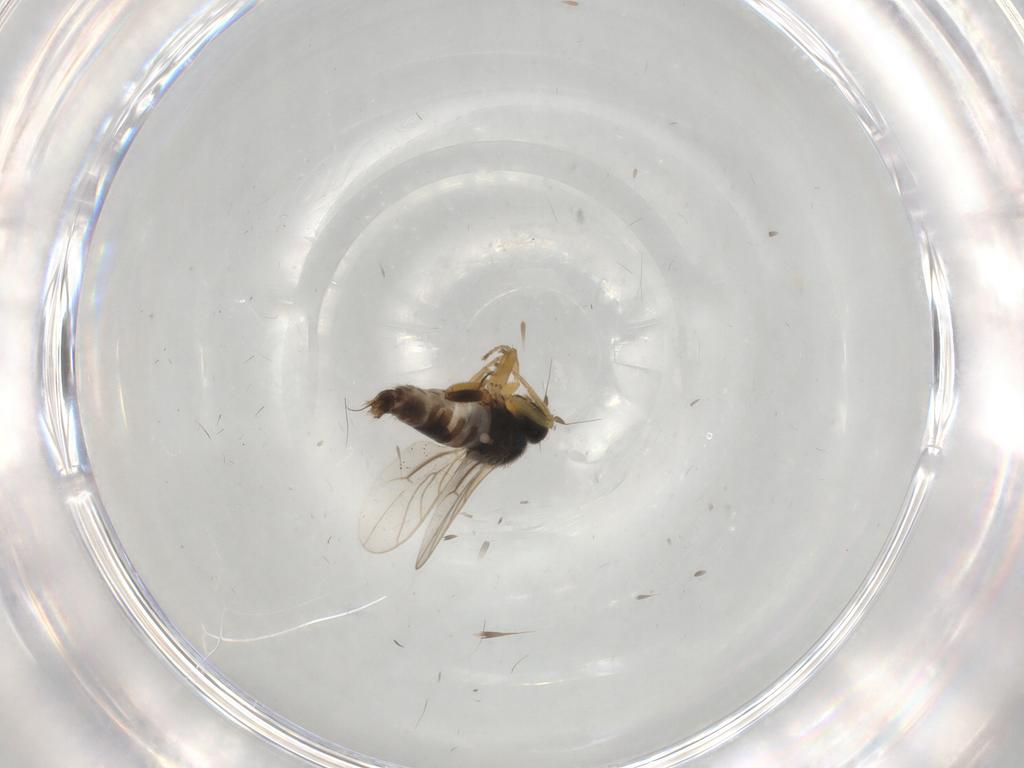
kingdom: Animalia
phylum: Arthropoda
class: Insecta
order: Diptera
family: Hybotidae
